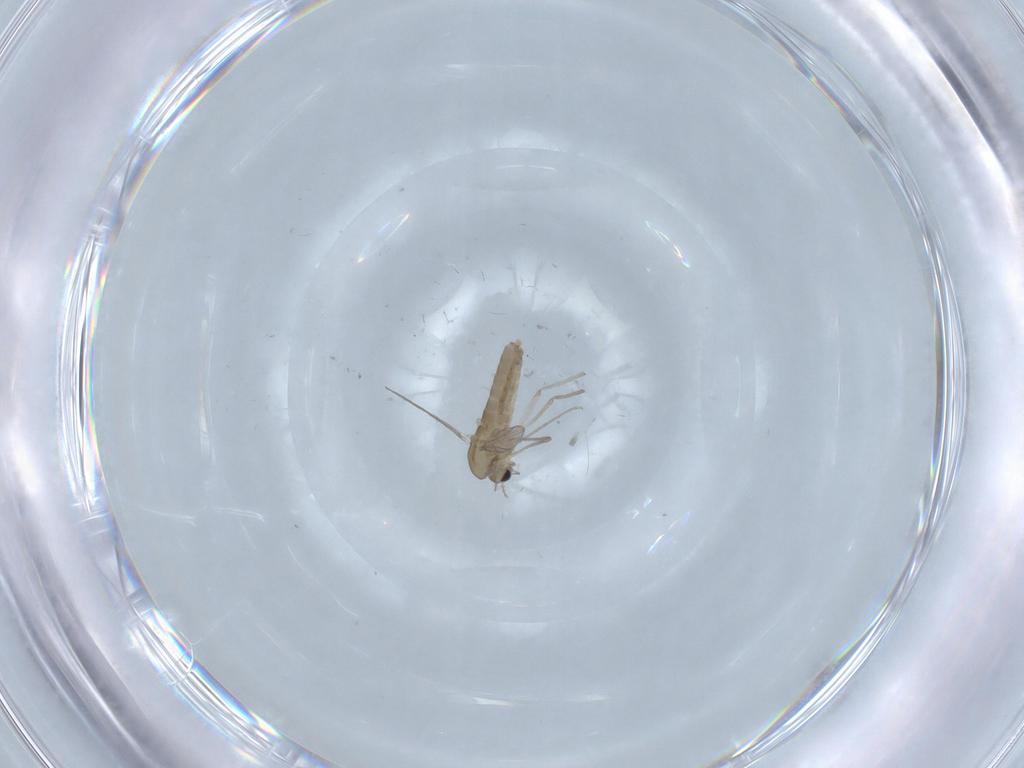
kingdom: Animalia
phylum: Arthropoda
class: Insecta
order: Diptera
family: Chironomidae
